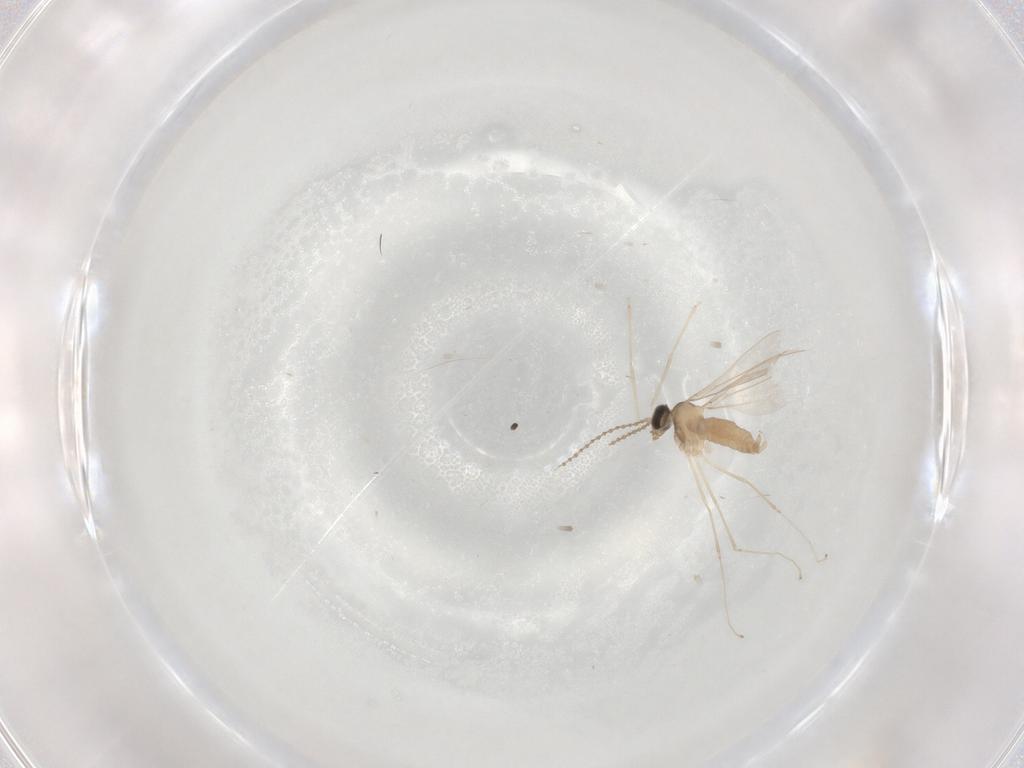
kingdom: Animalia
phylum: Arthropoda
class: Insecta
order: Diptera
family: Cecidomyiidae
